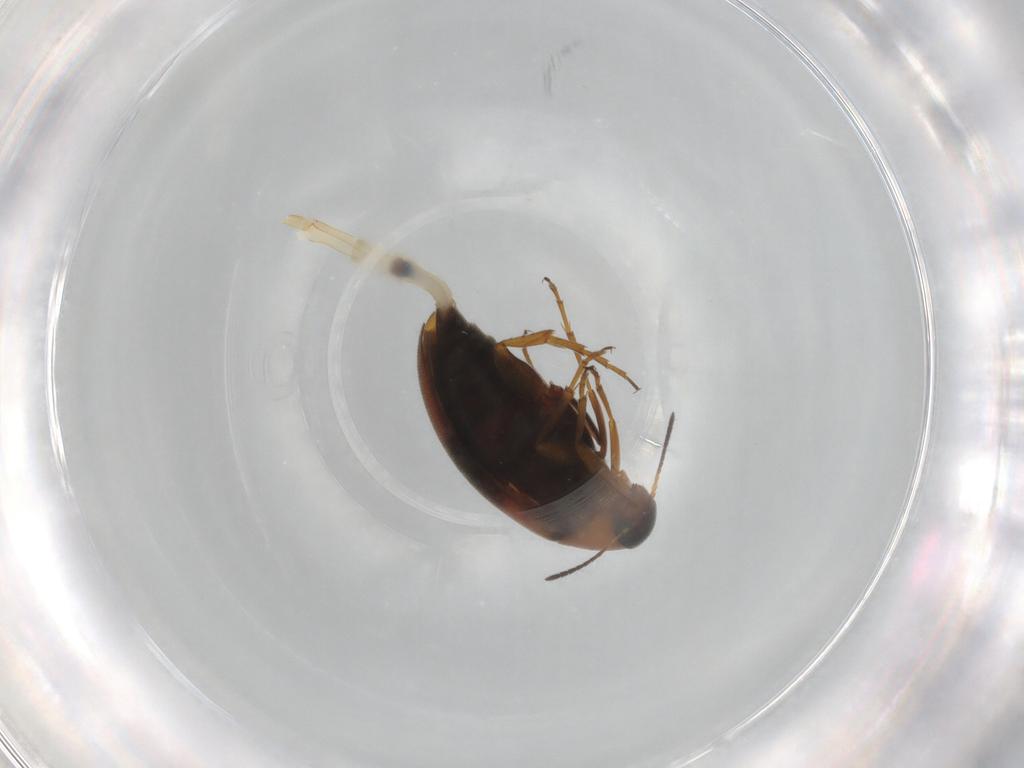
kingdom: Animalia
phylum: Arthropoda
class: Insecta
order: Coleoptera
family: Scraptiidae
